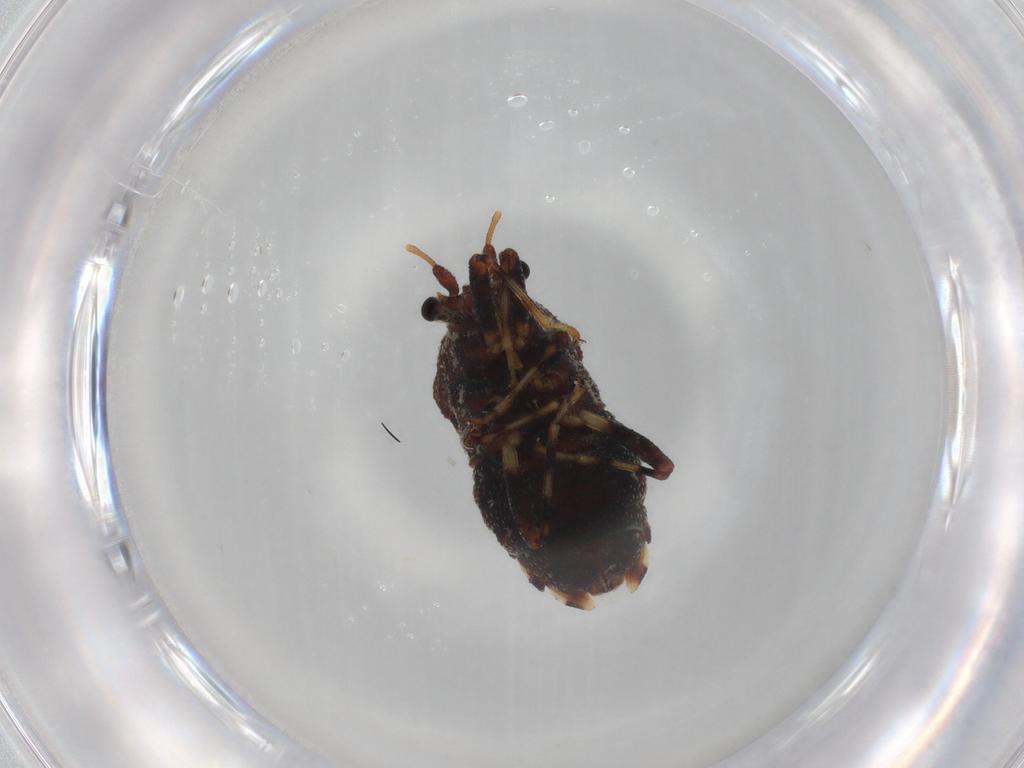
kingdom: Animalia
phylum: Arthropoda
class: Insecta
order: Hemiptera
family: Malcidae
